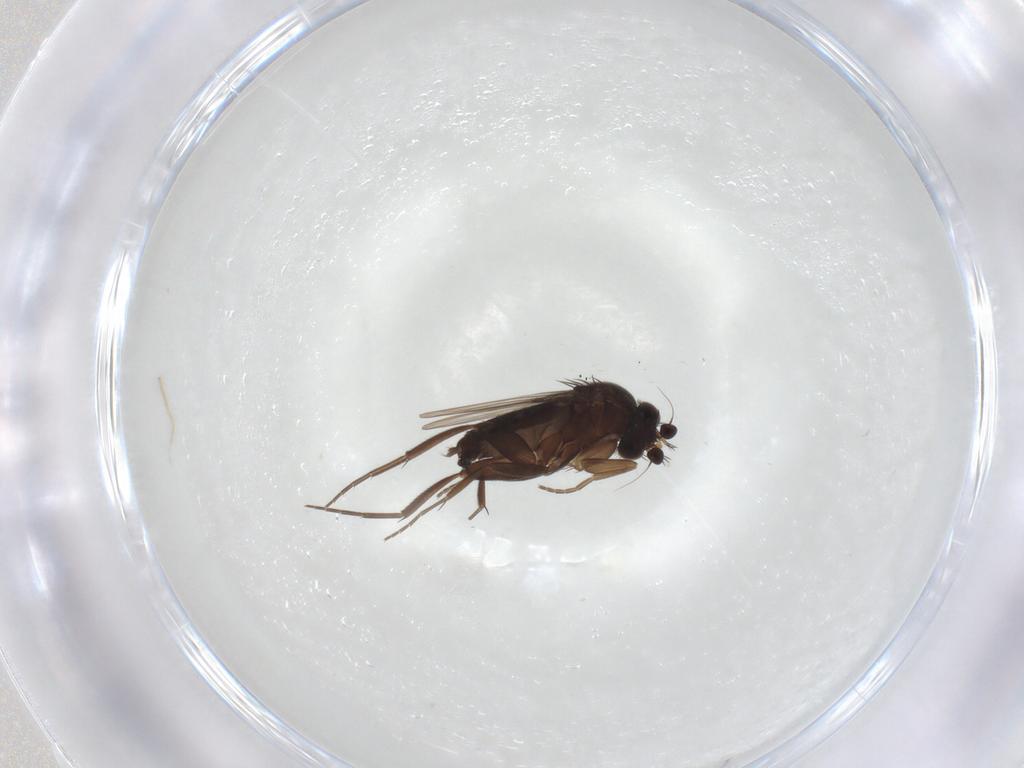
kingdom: Animalia
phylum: Arthropoda
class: Insecta
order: Diptera
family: Phoridae
